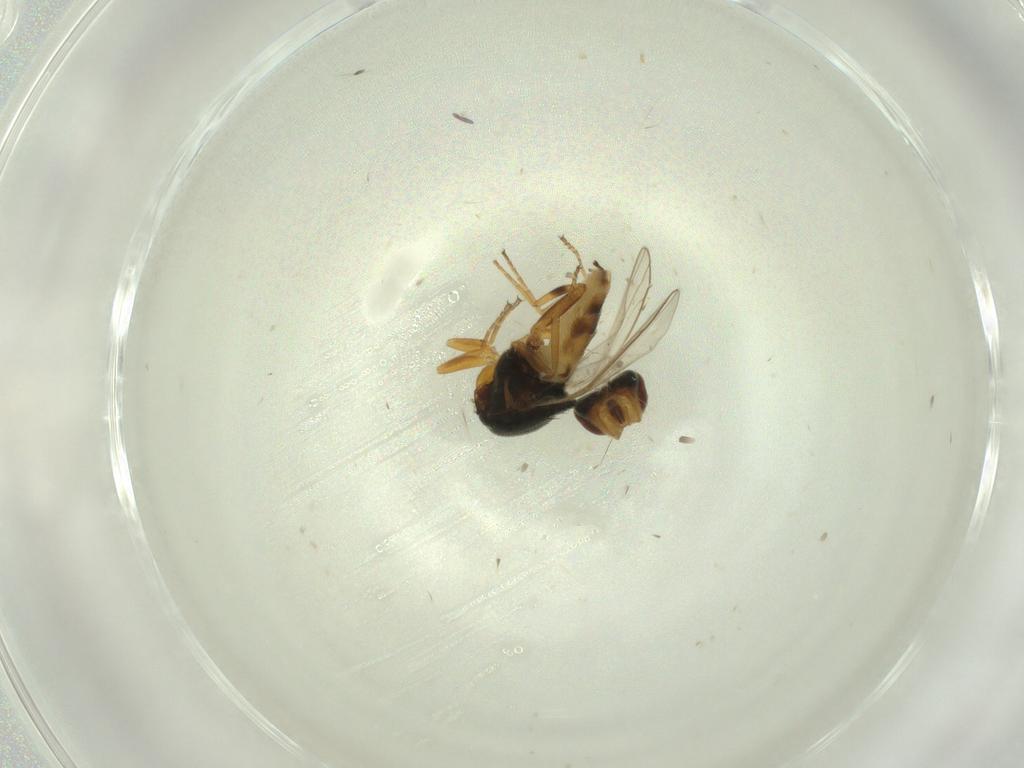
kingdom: Animalia
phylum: Arthropoda
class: Insecta
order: Diptera
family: Chloropidae
